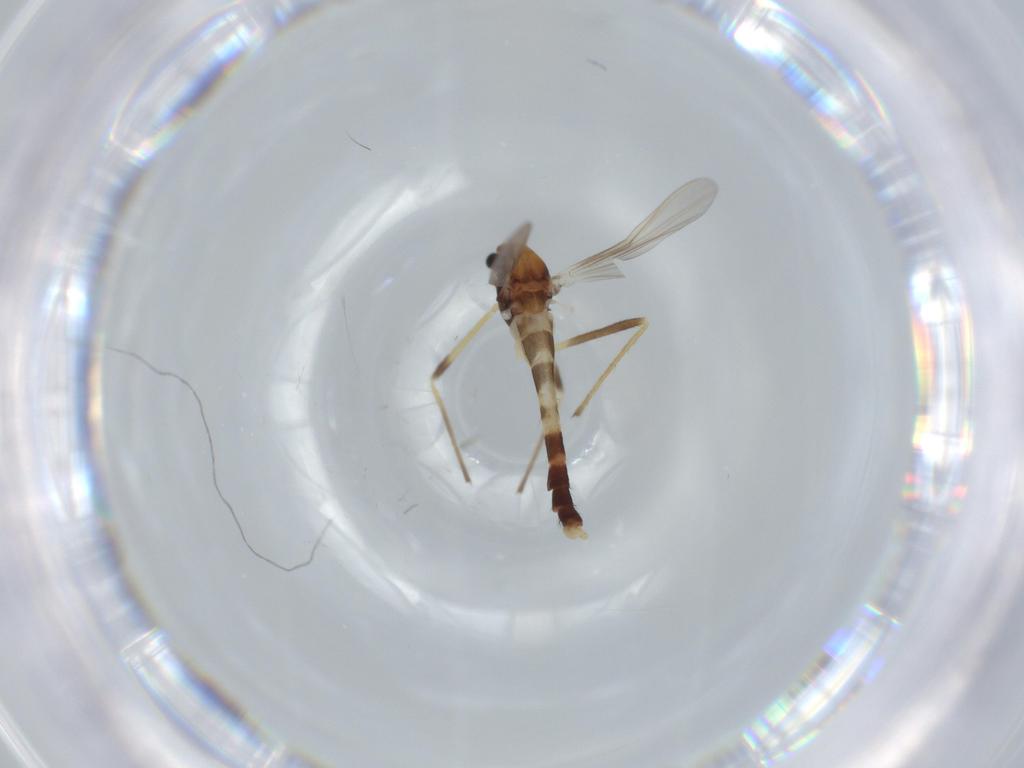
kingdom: Animalia
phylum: Arthropoda
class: Insecta
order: Diptera
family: Chironomidae
